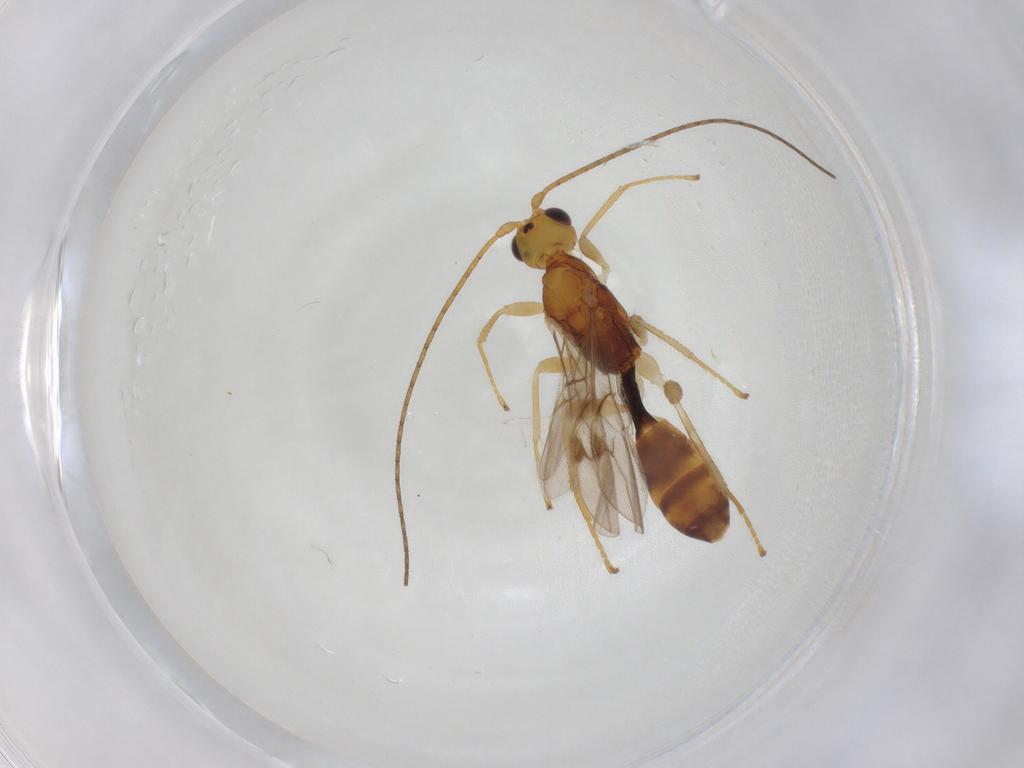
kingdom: Animalia
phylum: Arthropoda
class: Insecta
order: Hymenoptera
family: Braconidae
